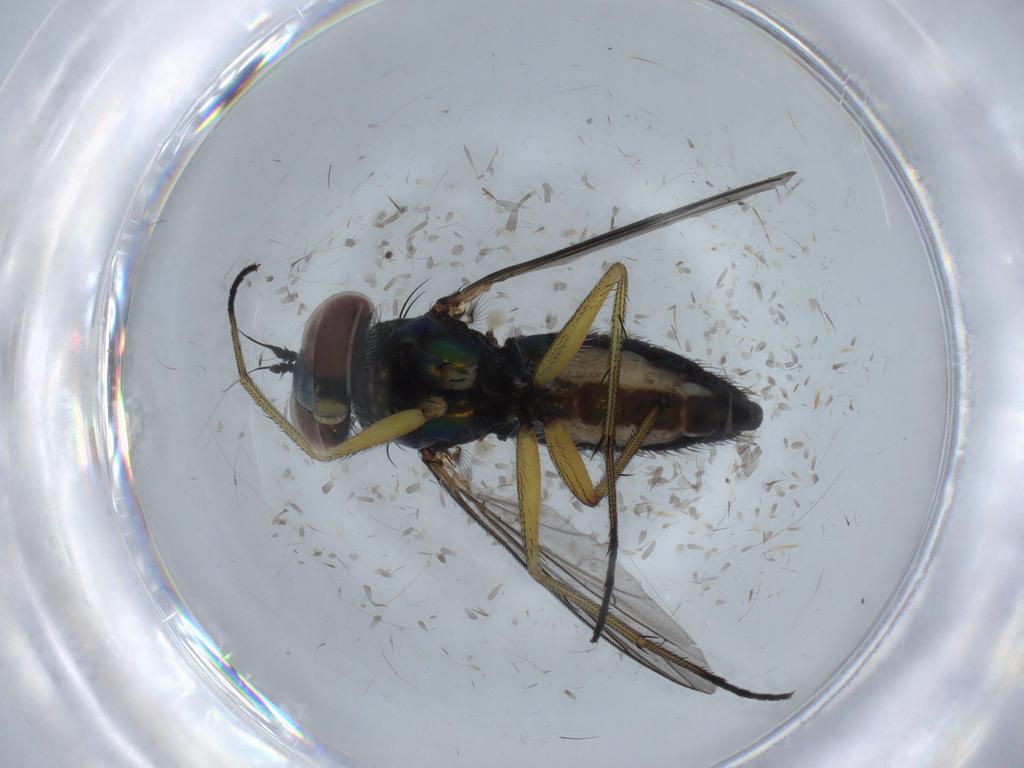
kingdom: Animalia
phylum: Arthropoda
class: Insecta
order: Diptera
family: Dolichopodidae
